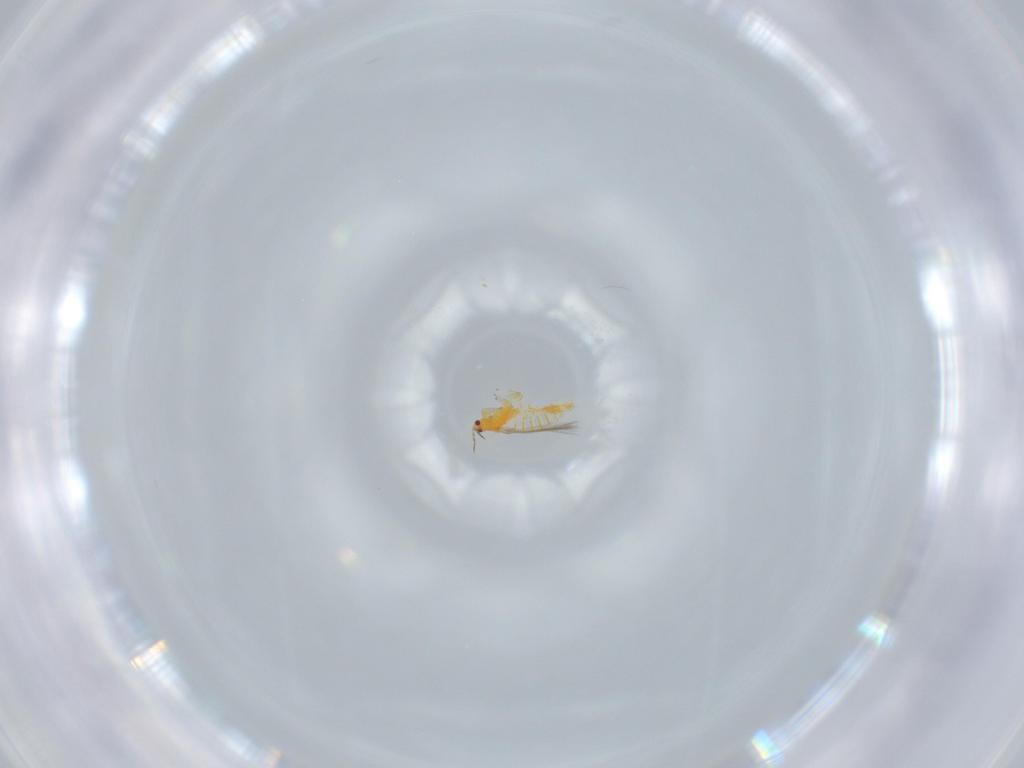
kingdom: Animalia
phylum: Arthropoda
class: Insecta
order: Thysanoptera
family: Thripidae
